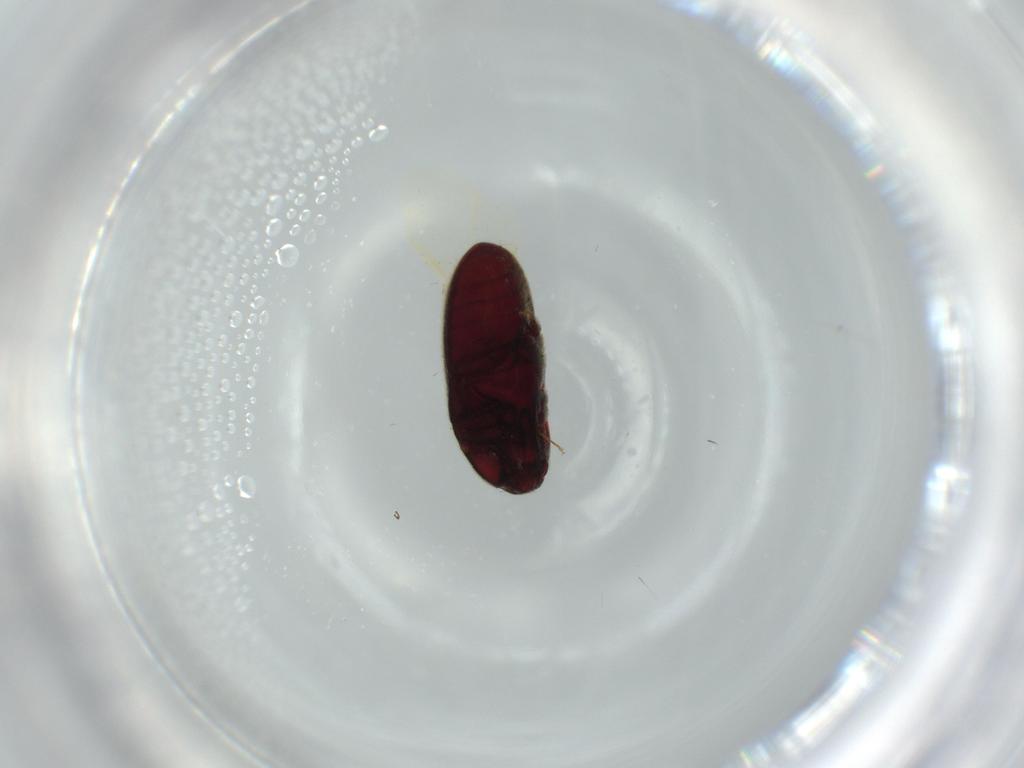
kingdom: Animalia
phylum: Arthropoda
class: Insecta
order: Coleoptera
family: Throscidae
